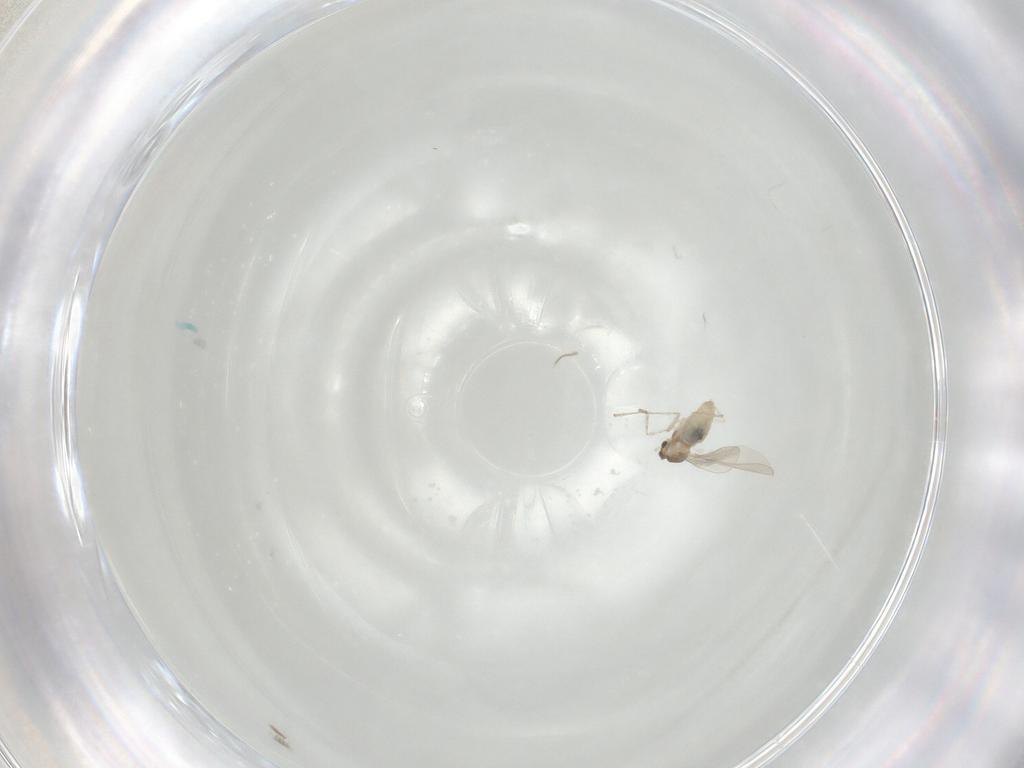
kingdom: Animalia
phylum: Arthropoda
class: Insecta
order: Diptera
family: Cecidomyiidae
